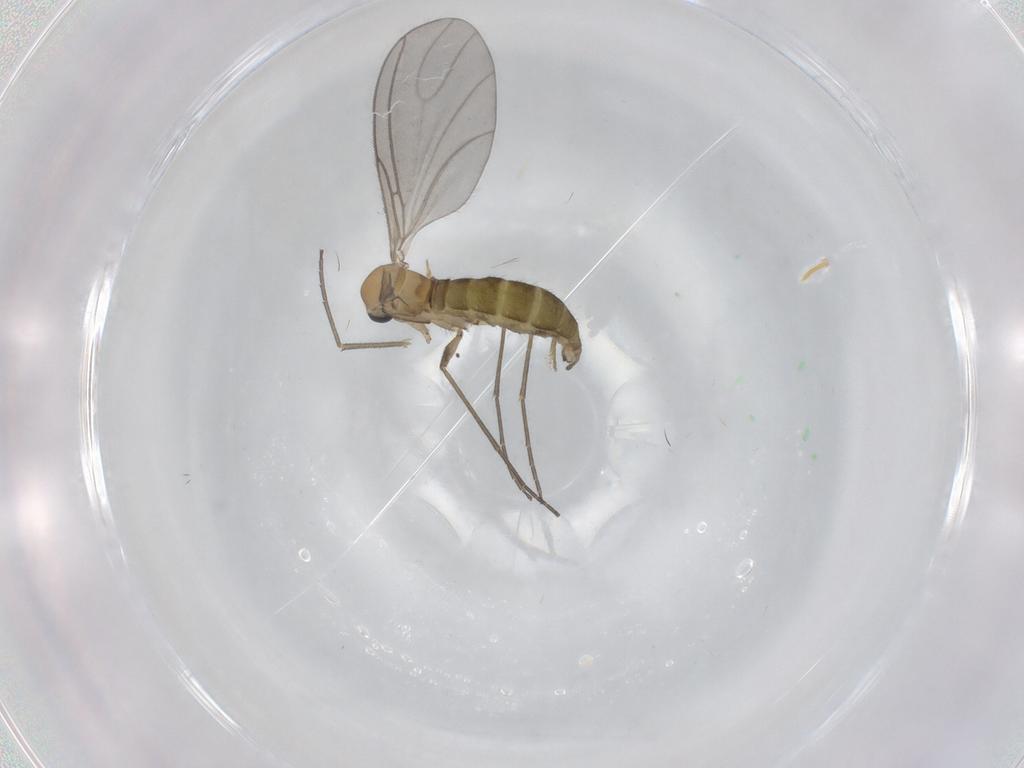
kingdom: Animalia
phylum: Arthropoda
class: Insecta
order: Diptera
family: Sciaridae
